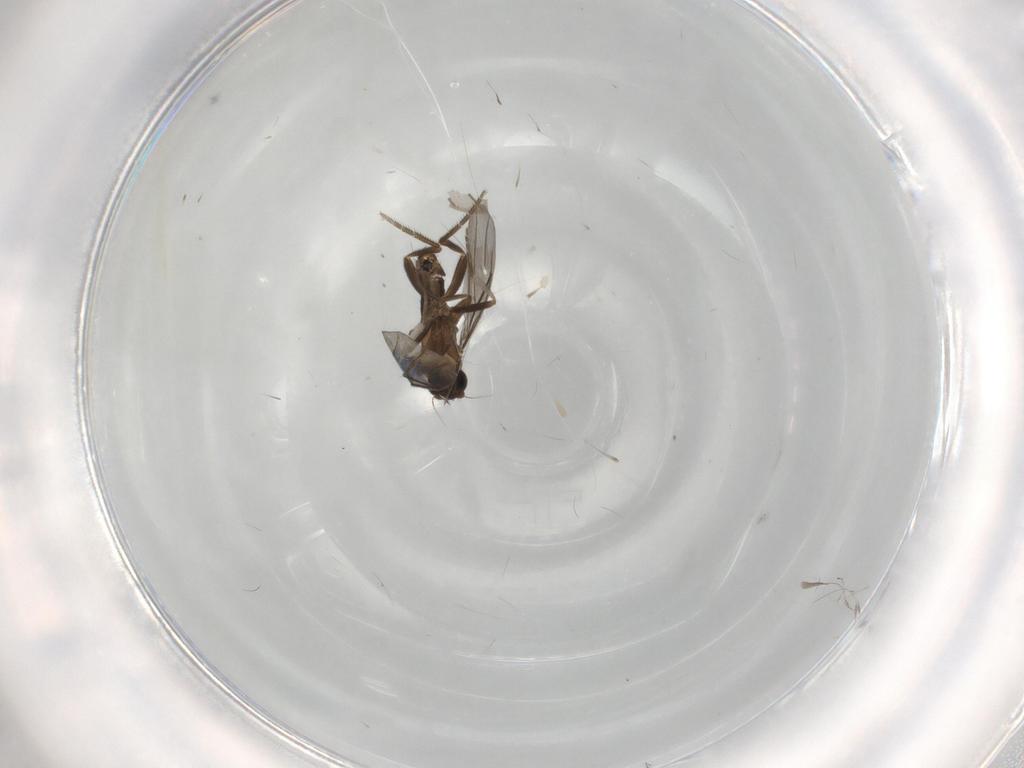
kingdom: Animalia
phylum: Arthropoda
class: Insecta
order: Diptera
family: Phoridae
